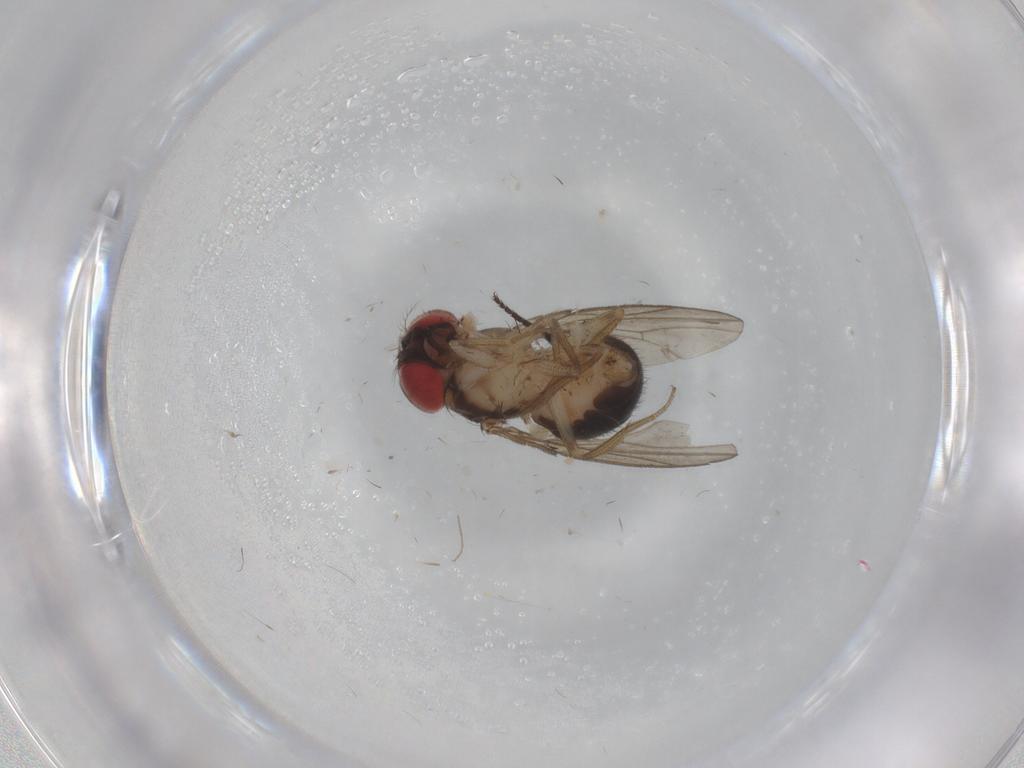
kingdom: Animalia
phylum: Arthropoda
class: Insecta
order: Diptera
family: Milichiidae
